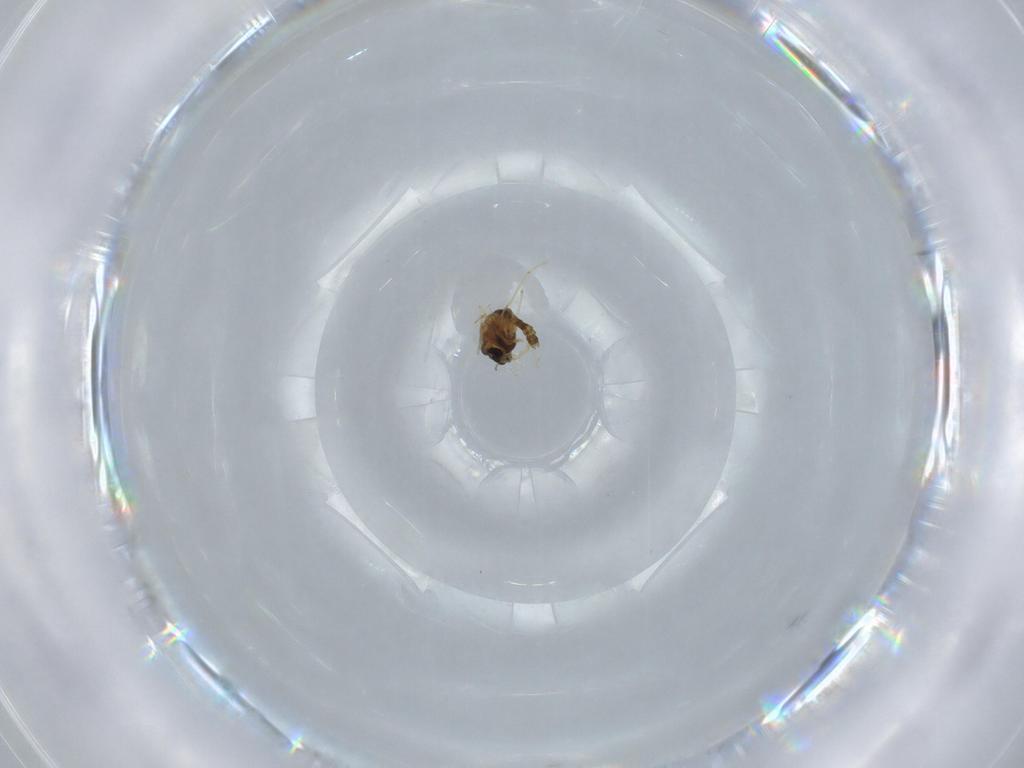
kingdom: Animalia
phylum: Arthropoda
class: Insecta
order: Diptera
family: Chironomidae
